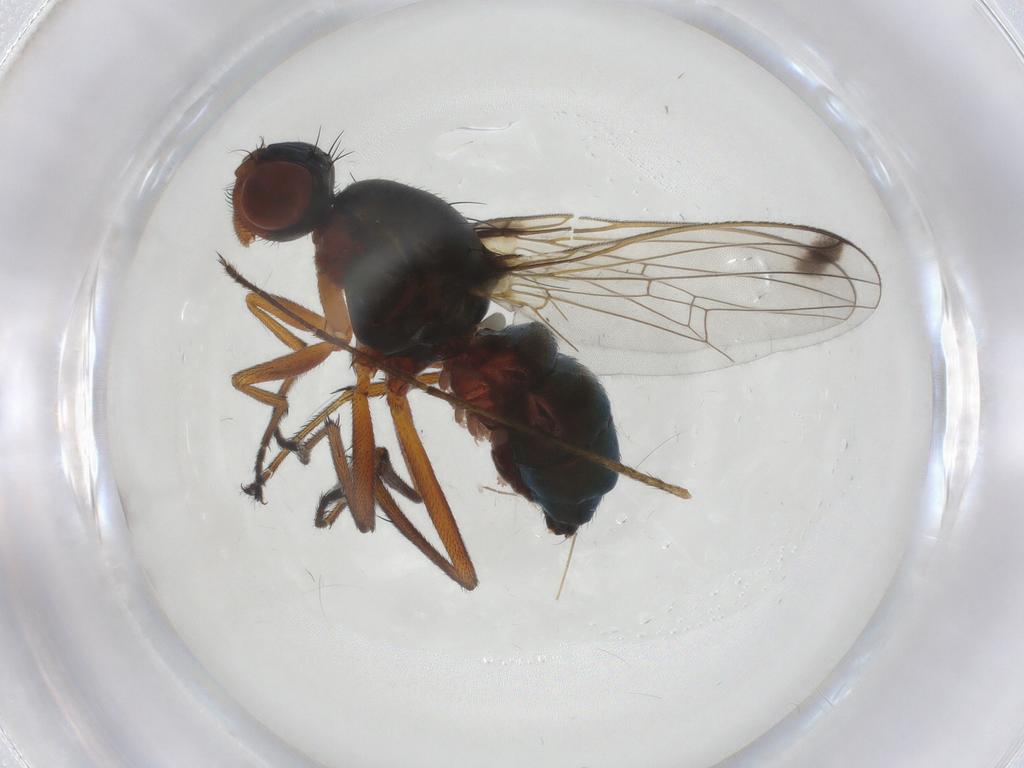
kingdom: Animalia
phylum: Arthropoda
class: Insecta
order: Diptera
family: Sepsidae
